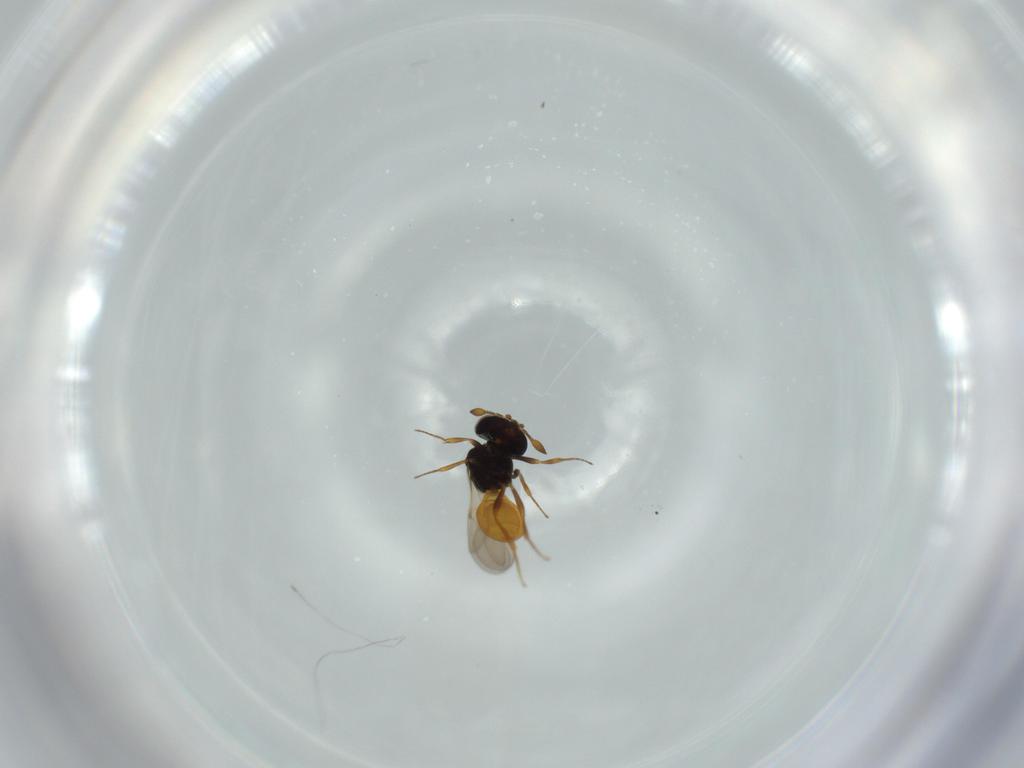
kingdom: Animalia
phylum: Arthropoda
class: Insecta
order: Hymenoptera
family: Scelionidae
